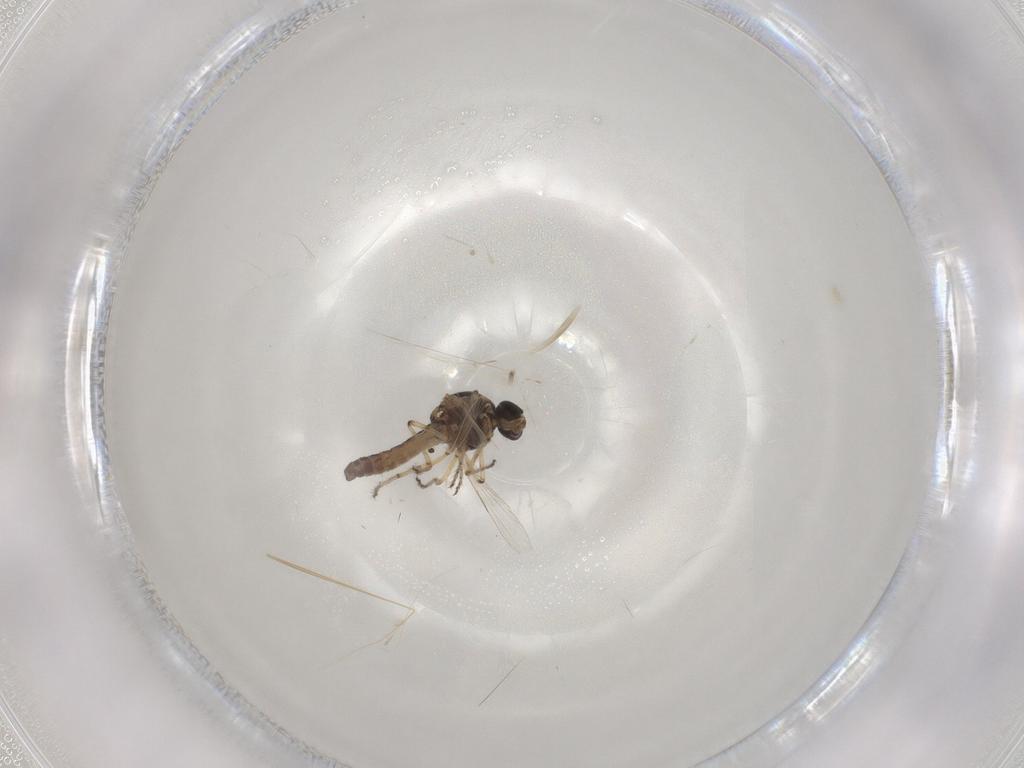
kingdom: Animalia
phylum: Arthropoda
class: Insecta
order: Diptera
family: Ceratopogonidae
